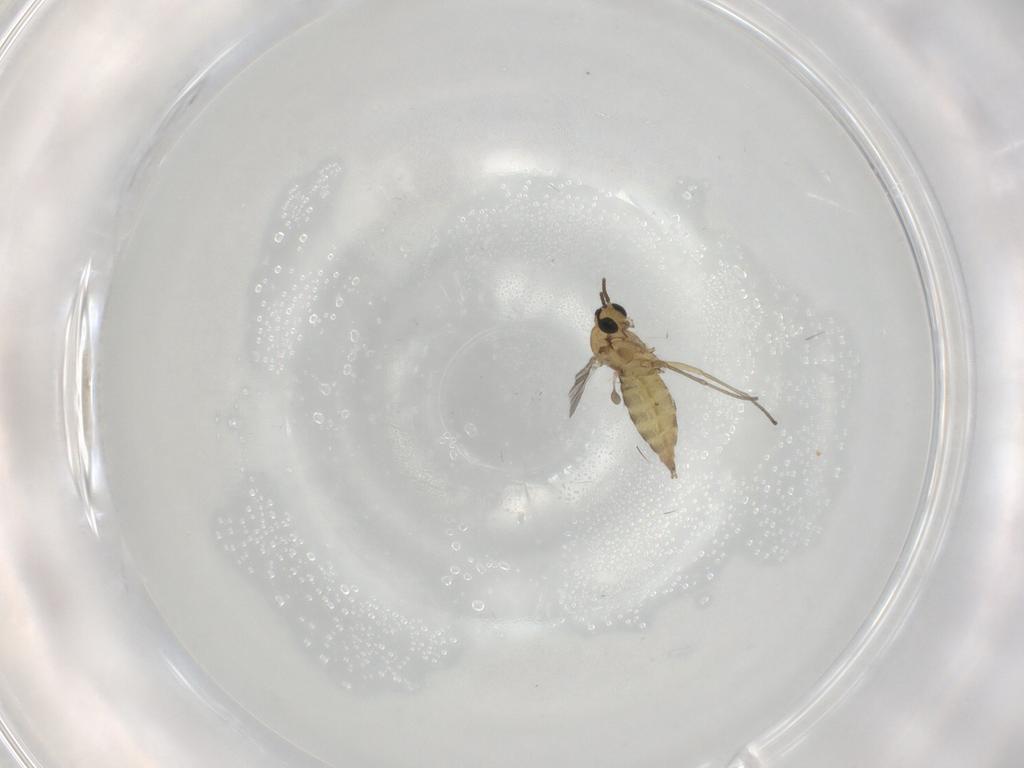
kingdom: Animalia
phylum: Arthropoda
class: Insecta
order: Diptera
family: Sciaridae
